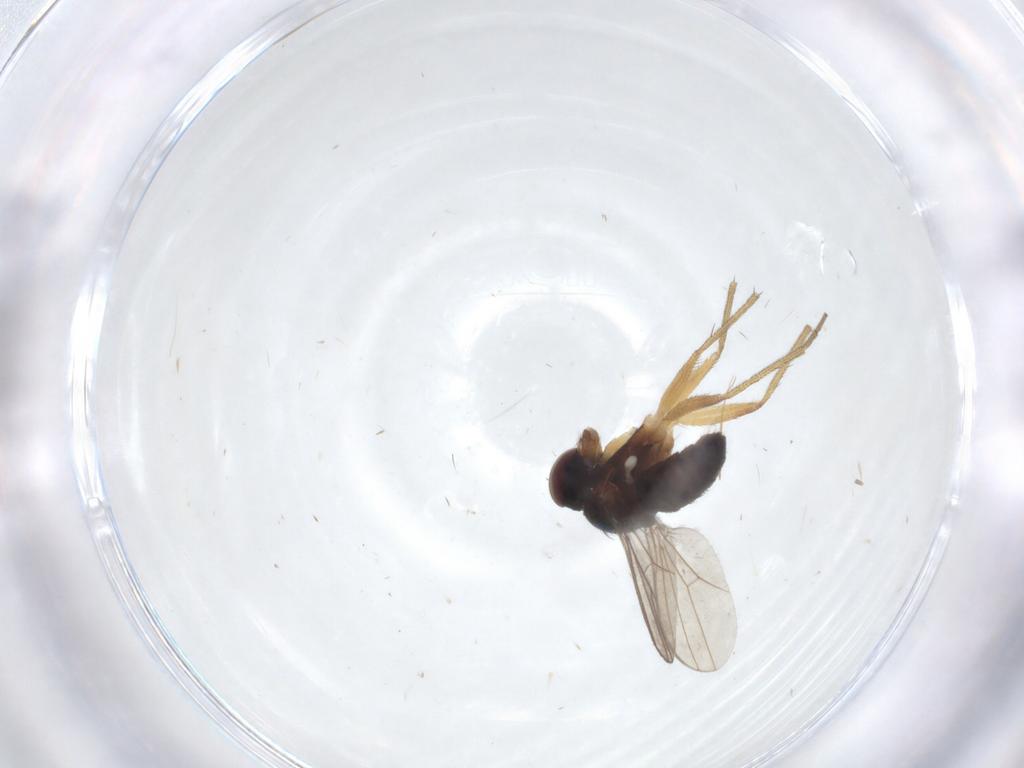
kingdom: Animalia
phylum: Arthropoda
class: Insecta
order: Diptera
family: Dolichopodidae
